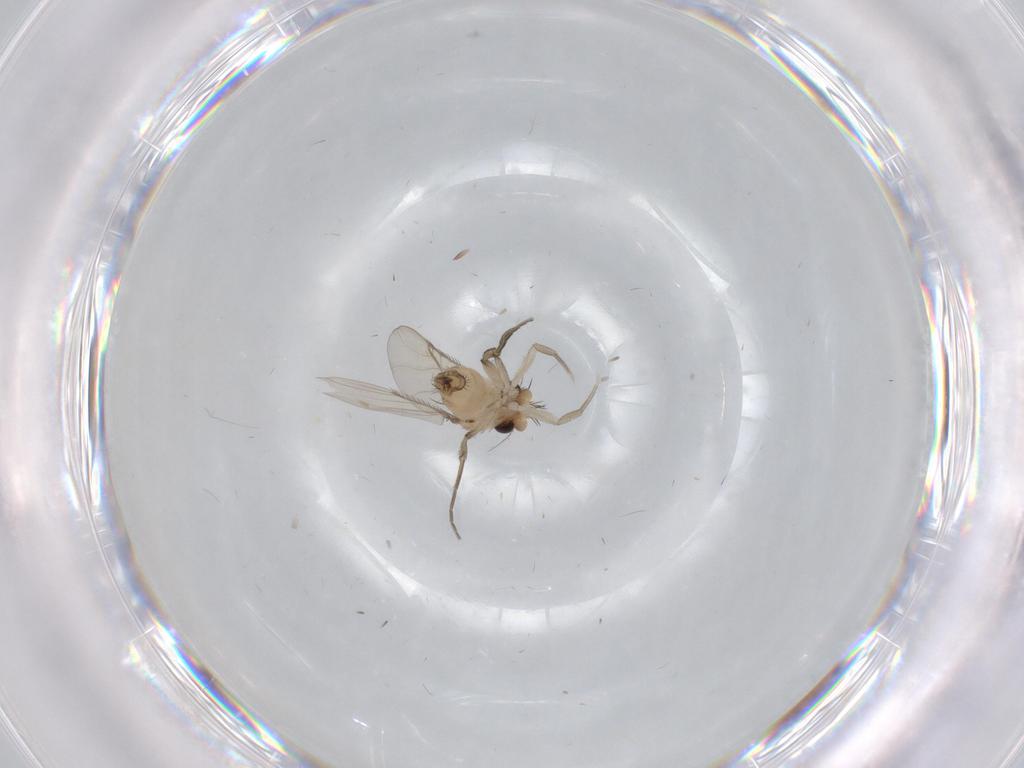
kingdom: Animalia
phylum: Arthropoda
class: Insecta
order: Diptera
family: Phoridae
